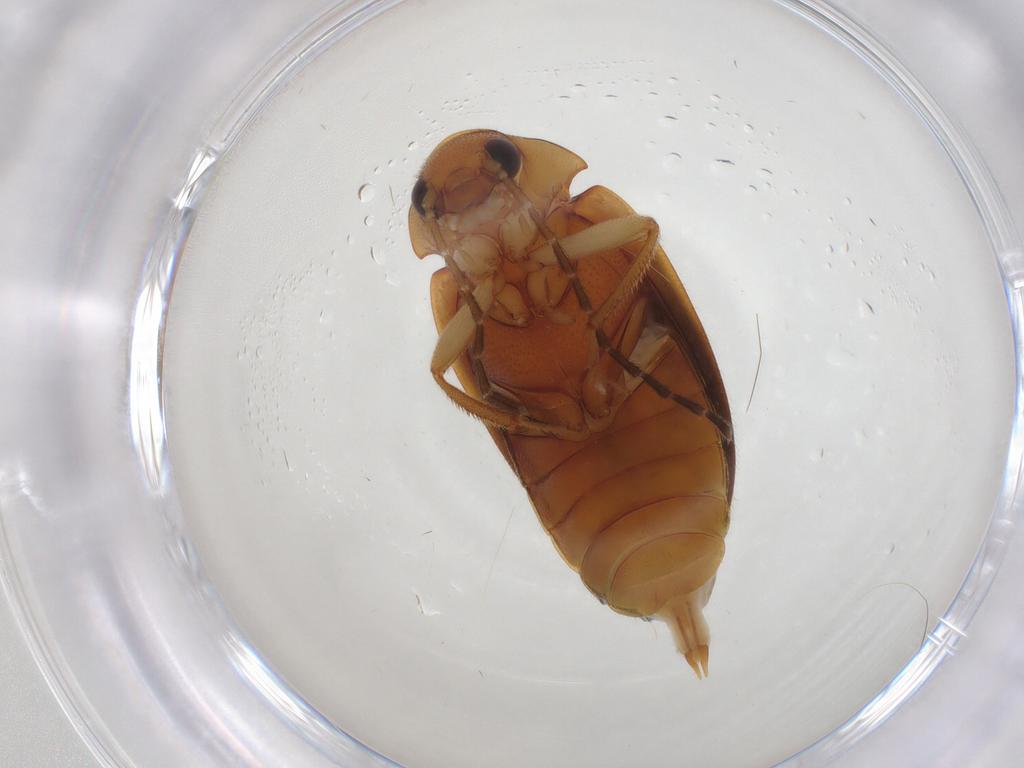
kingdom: Animalia
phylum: Arthropoda
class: Insecta
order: Coleoptera
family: Ptilodactylidae
